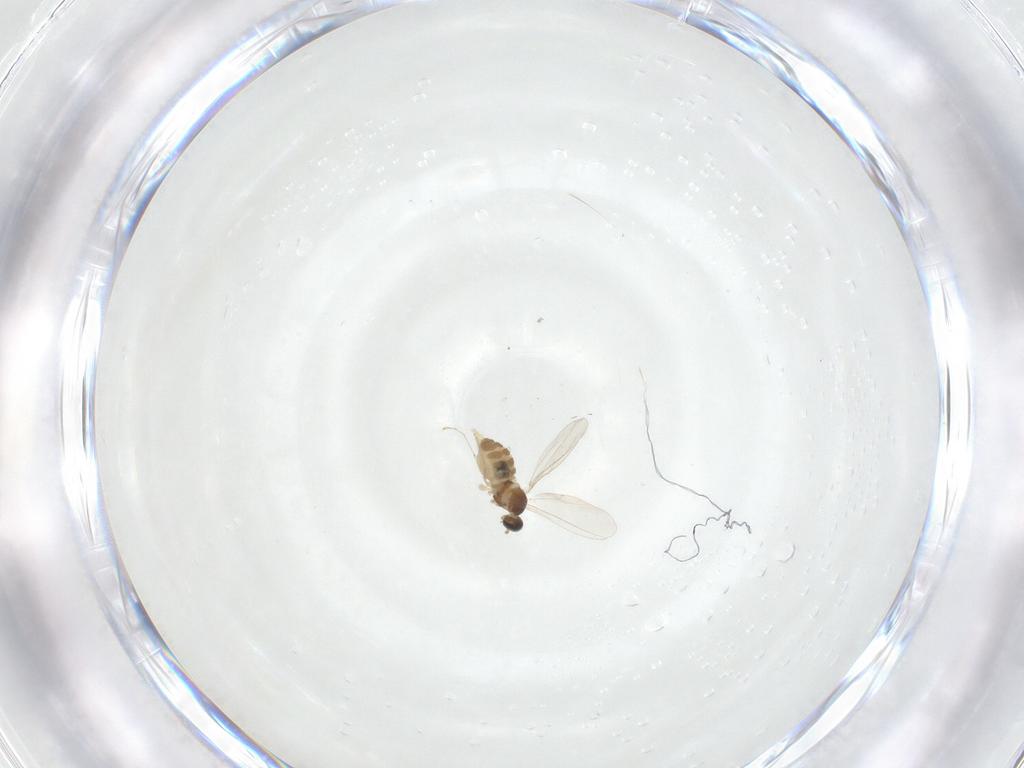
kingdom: Animalia
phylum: Arthropoda
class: Insecta
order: Diptera
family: Cecidomyiidae
